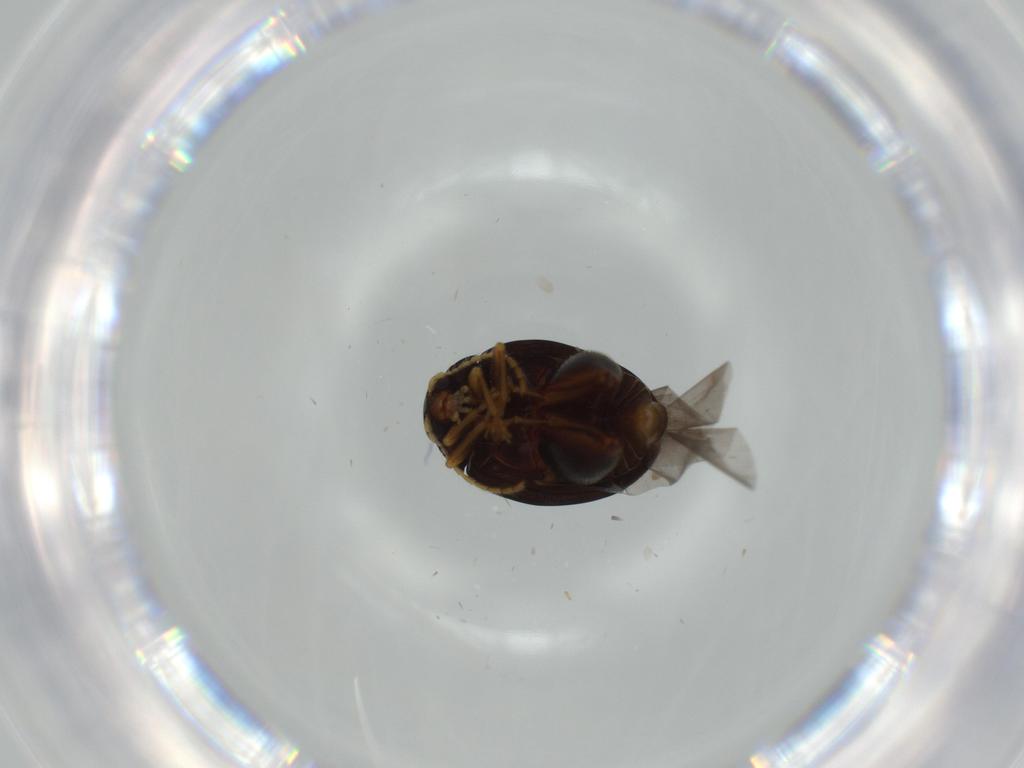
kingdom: Animalia
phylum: Arthropoda
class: Insecta
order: Coleoptera
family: Chrysomelidae
